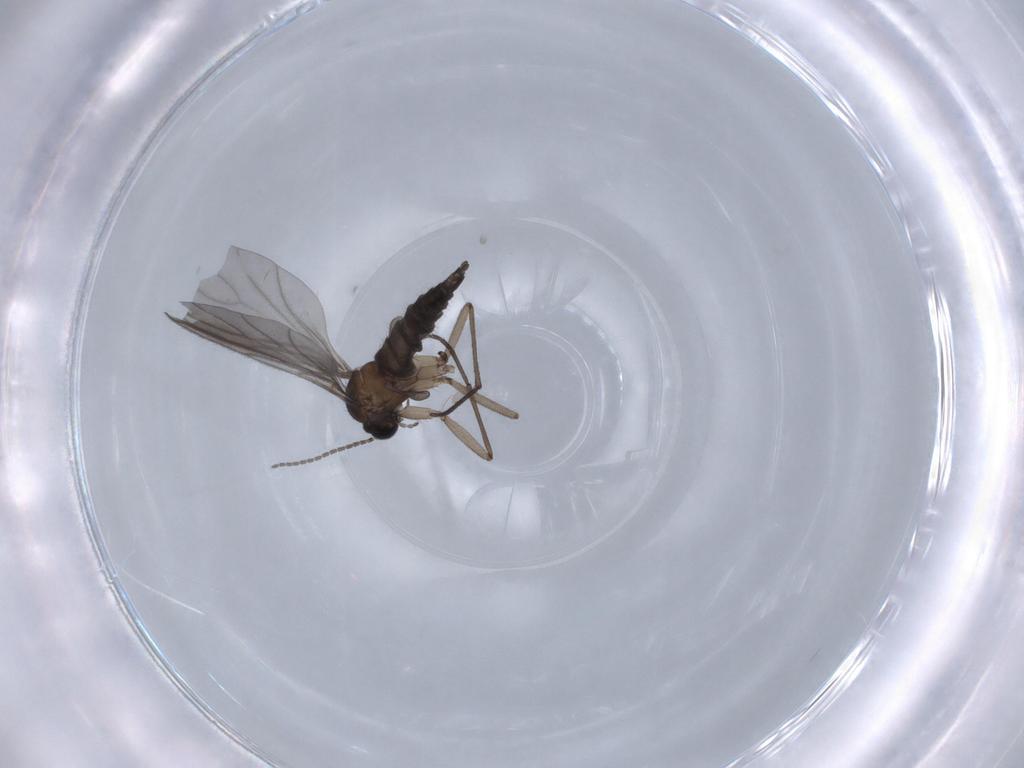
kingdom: Animalia
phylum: Arthropoda
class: Insecta
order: Diptera
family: Sciaridae
